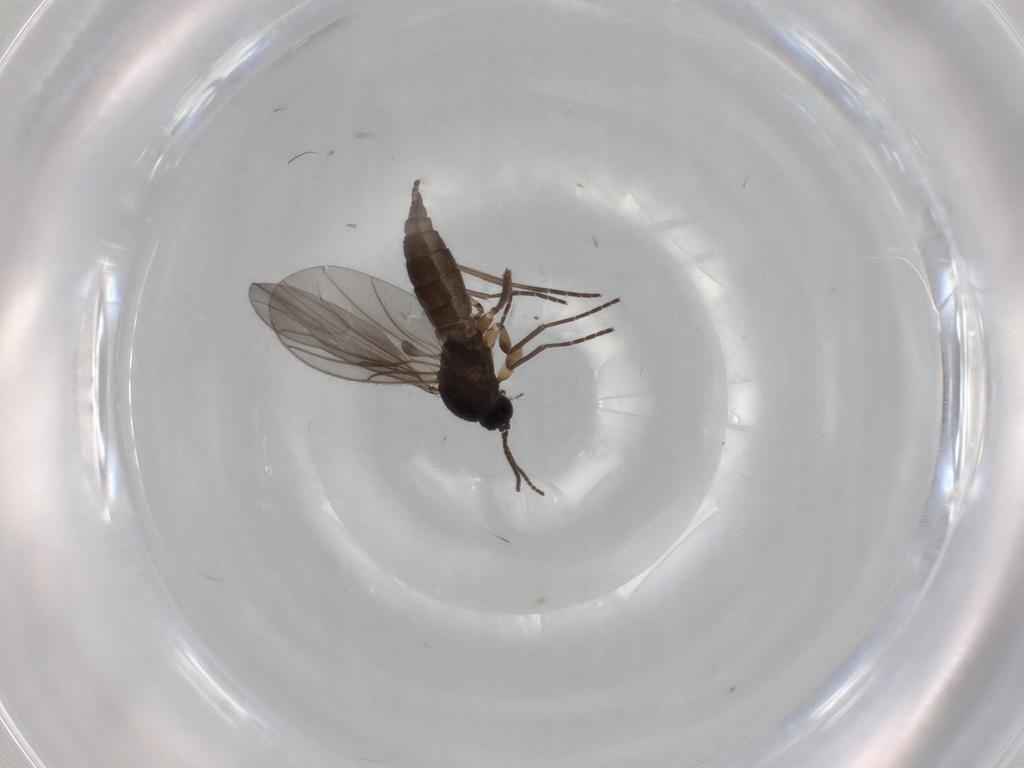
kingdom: Animalia
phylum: Arthropoda
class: Insecta
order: Diptera
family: Sciaridae
